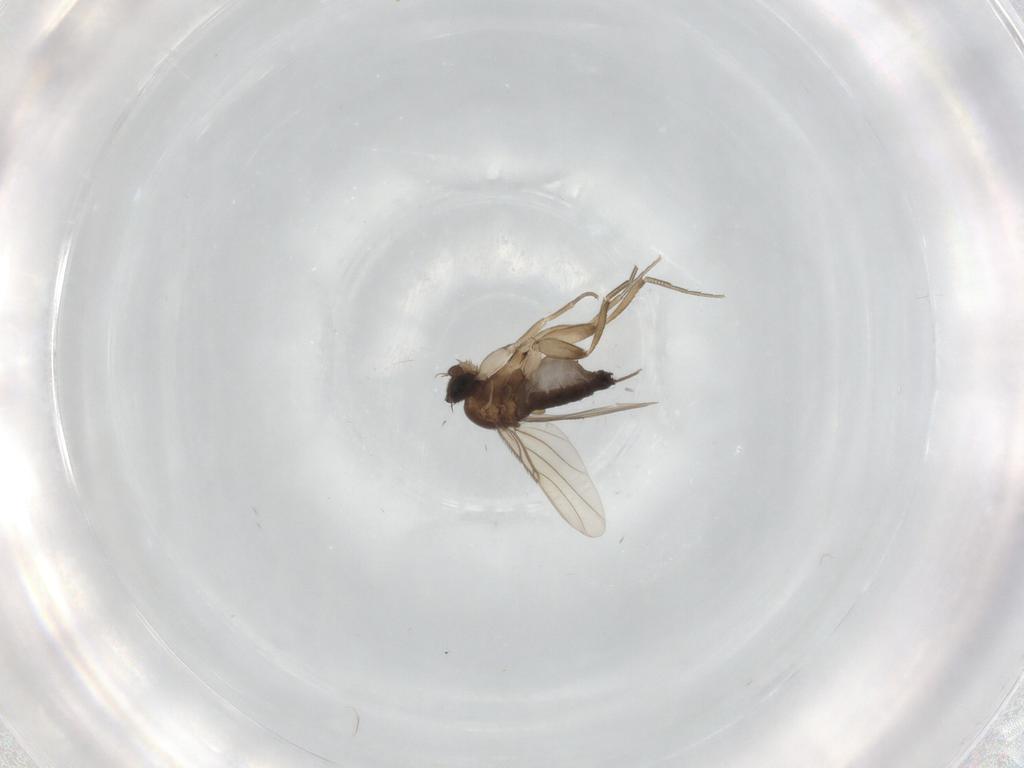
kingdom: Animalia
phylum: Arthropoda
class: Insecta
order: Diptera
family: Phoridae
